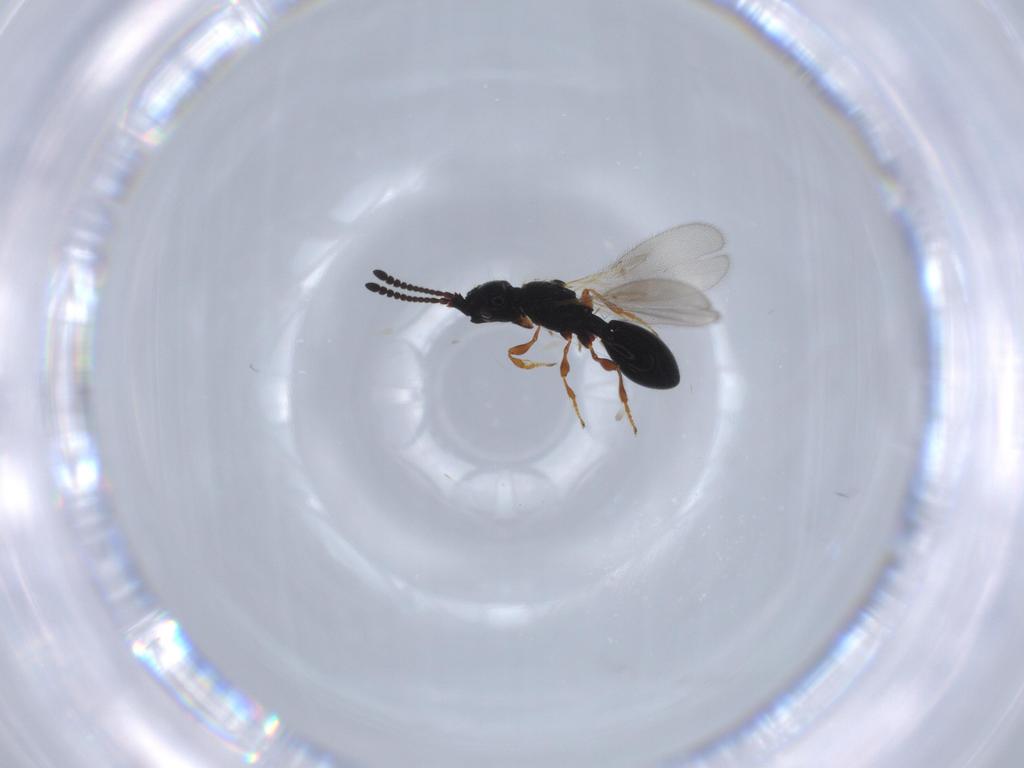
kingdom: Animalia
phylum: Arthropoda
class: Insecta
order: Hymenoptera
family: Diapriidae
